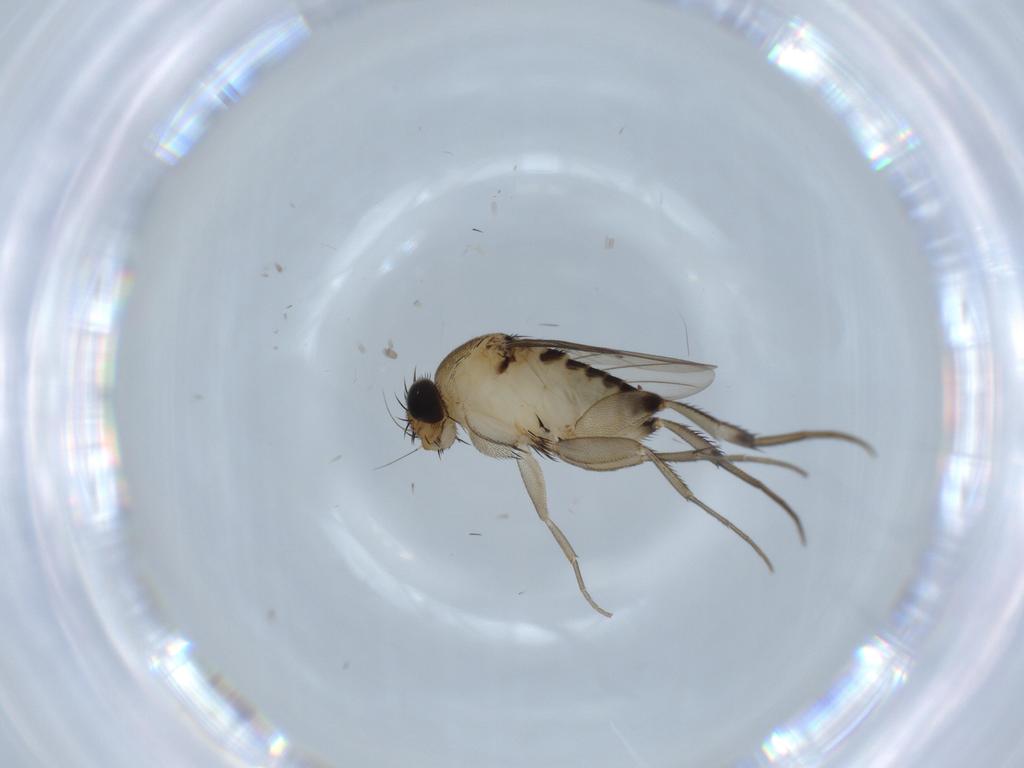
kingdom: Animalia
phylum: Arthropoda
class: Insecta
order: Diptera
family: Phoridae
